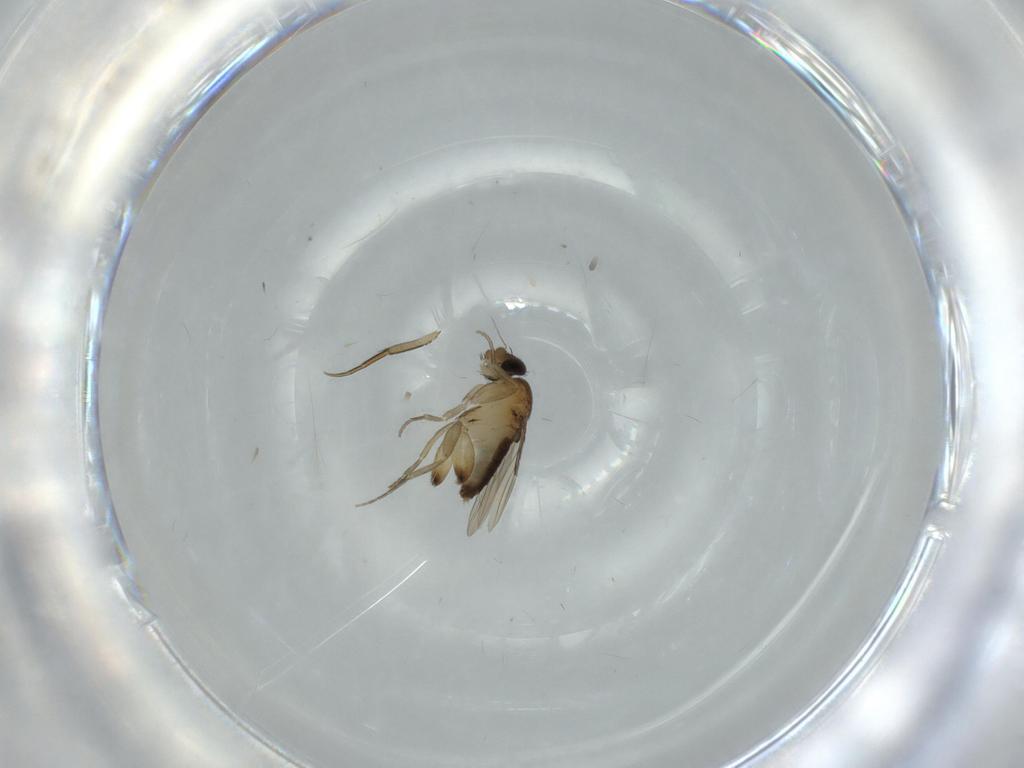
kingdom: Animalia
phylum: Arthropoda
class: Insecta
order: Diptera
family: Phoridae
